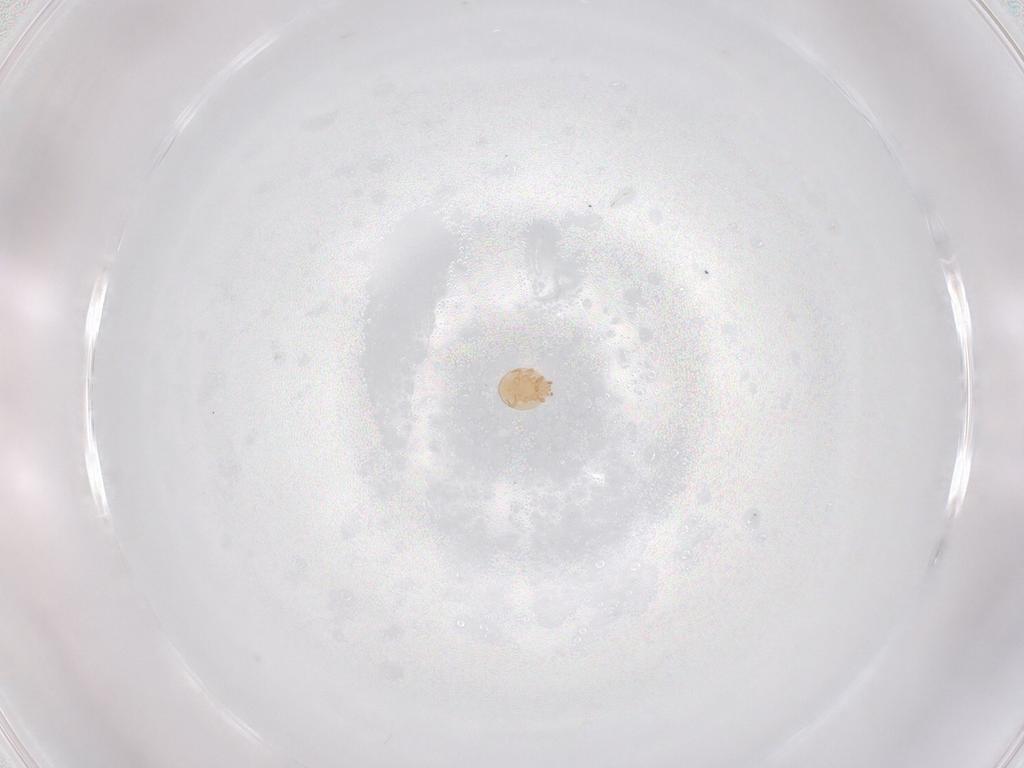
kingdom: Animalia
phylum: Arthropoda
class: Arachnida
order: Mesostigmata
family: Trematuridae
